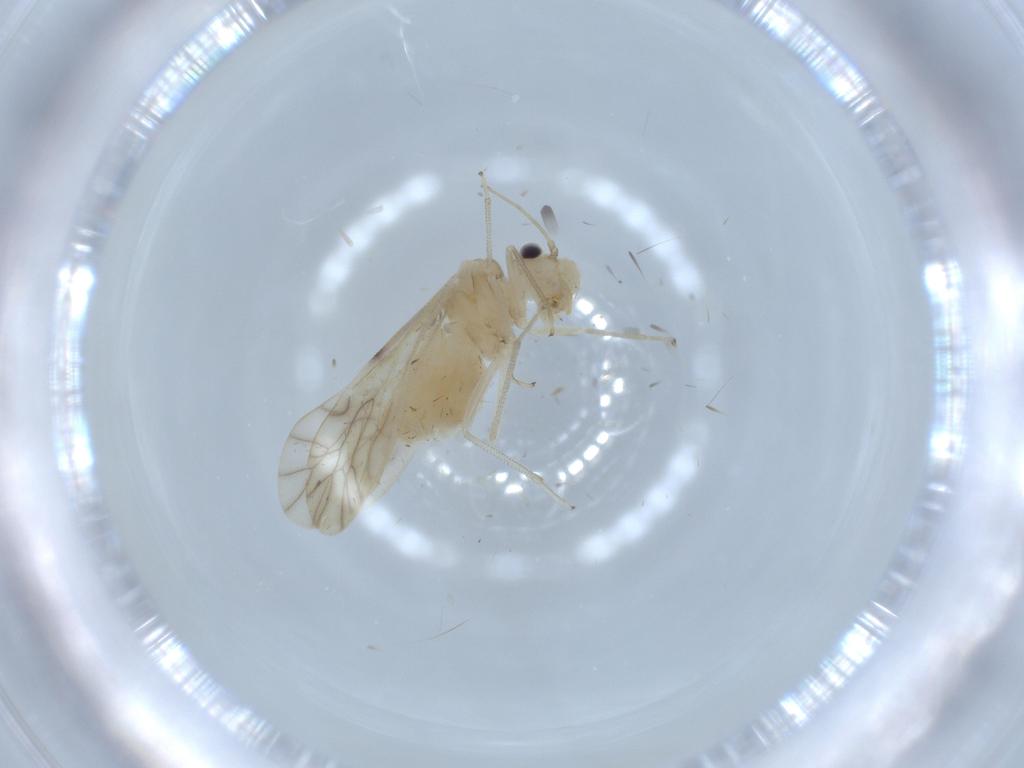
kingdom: Animalia
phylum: Arthropoda
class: Insecta
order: Psocodea
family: Caeciliusidae
